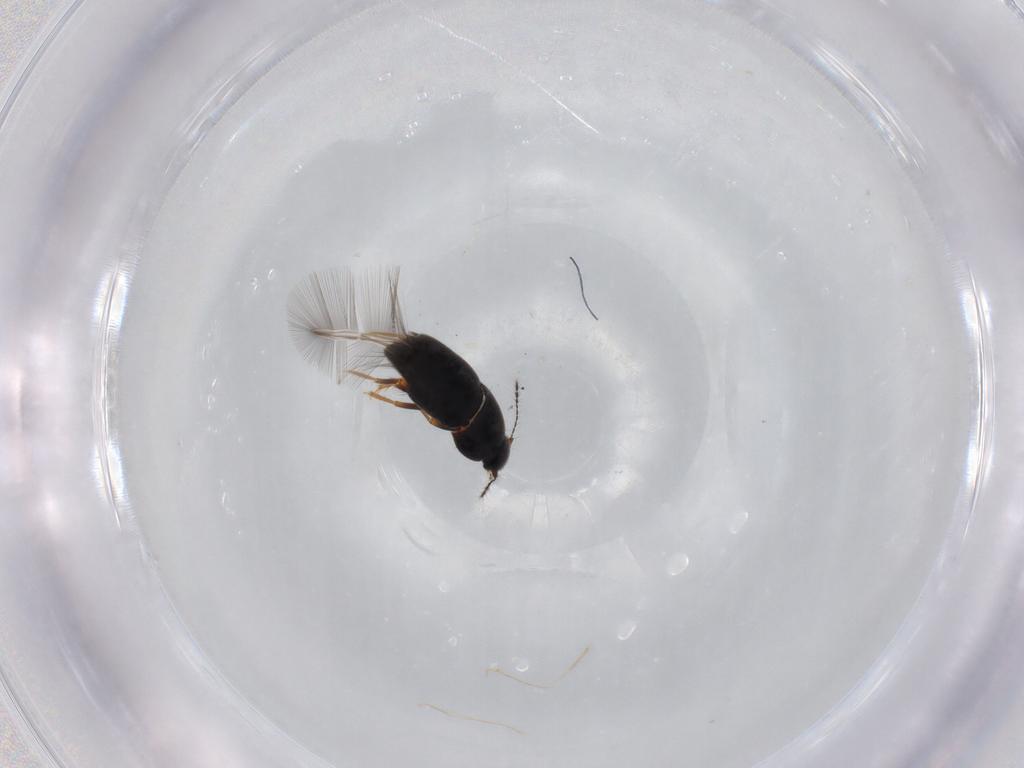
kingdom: Animalia
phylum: Arthropoda
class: Insecta
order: Coleoptera
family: Ptiliidae
